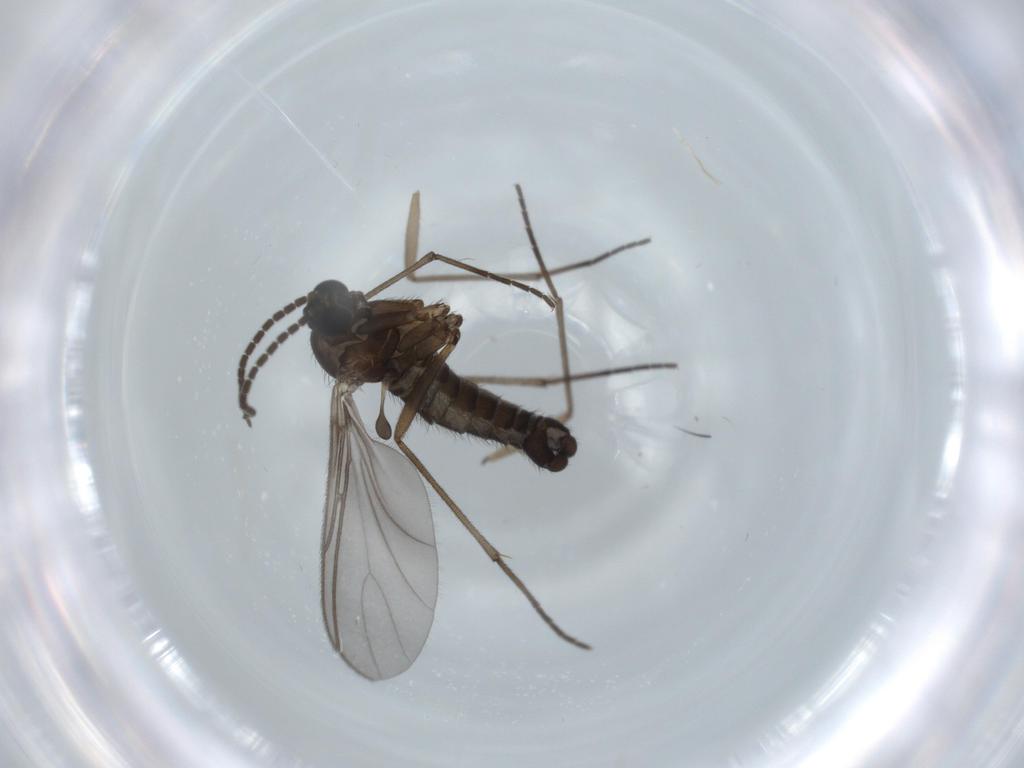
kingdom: Animalia
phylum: Arthropoda
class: Insecta
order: Diptera
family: Sciaridae
